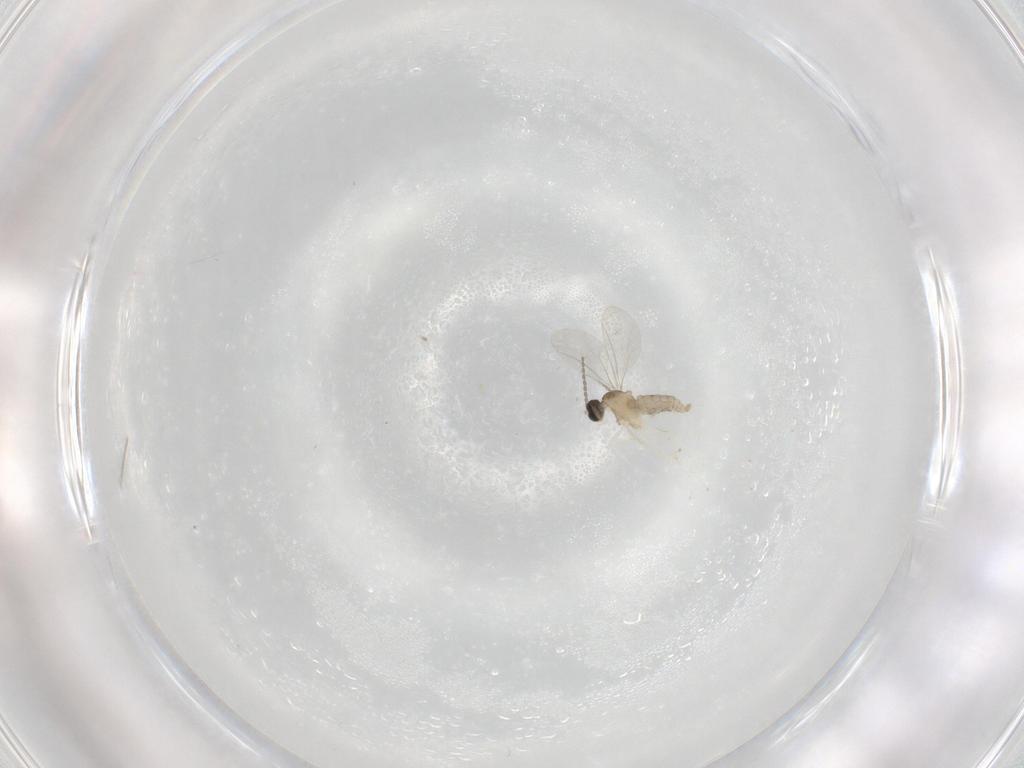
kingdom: Animalia
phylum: Arthropoda
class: Insecta
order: Diptera
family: Cecidomyiidae
